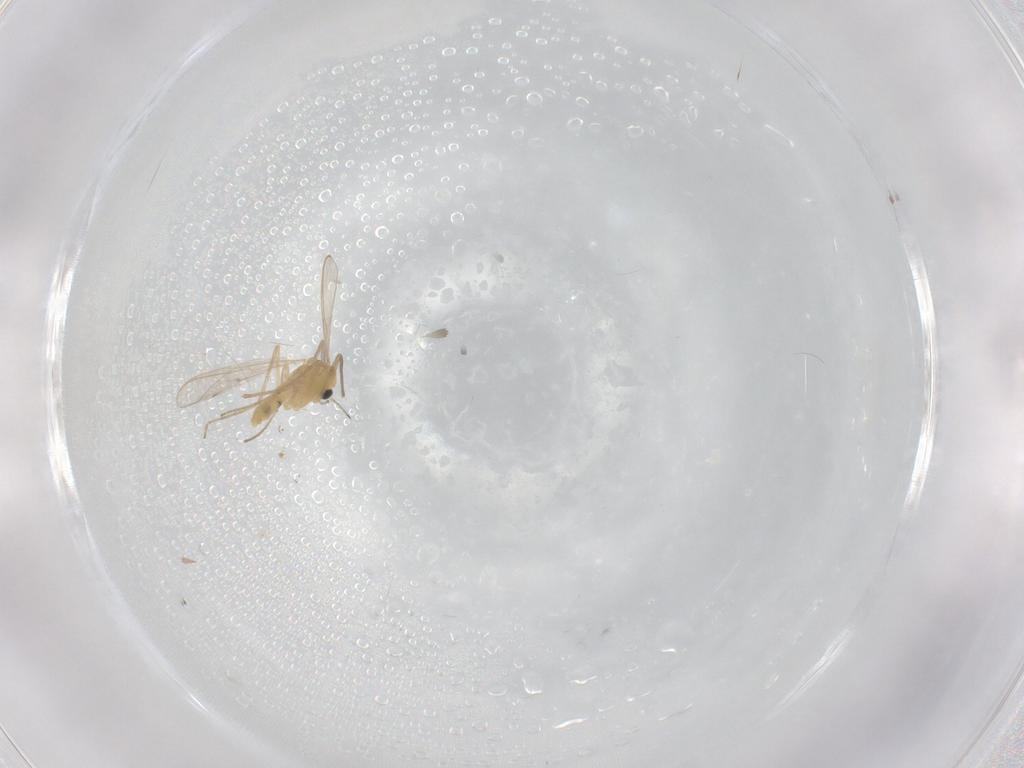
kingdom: Animalia
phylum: Arthropoda
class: Insecta
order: Diptera
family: Chironomidae
